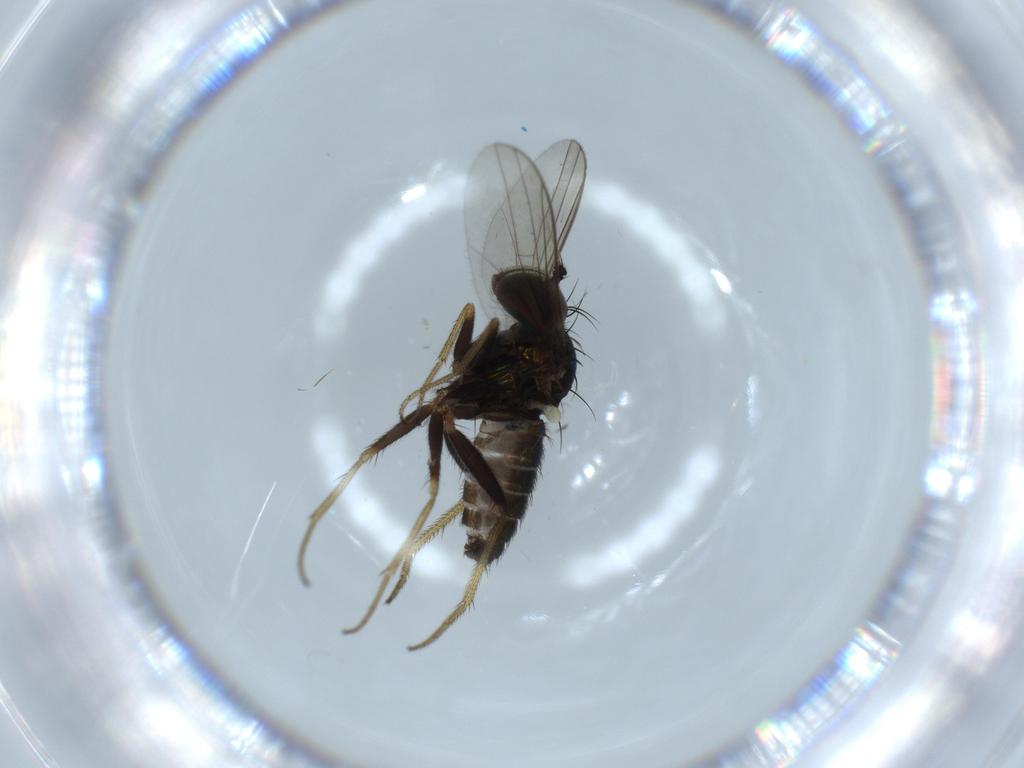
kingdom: Animalia
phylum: Arthropoda
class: Insecta
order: Diptera
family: Dolichopodidae
